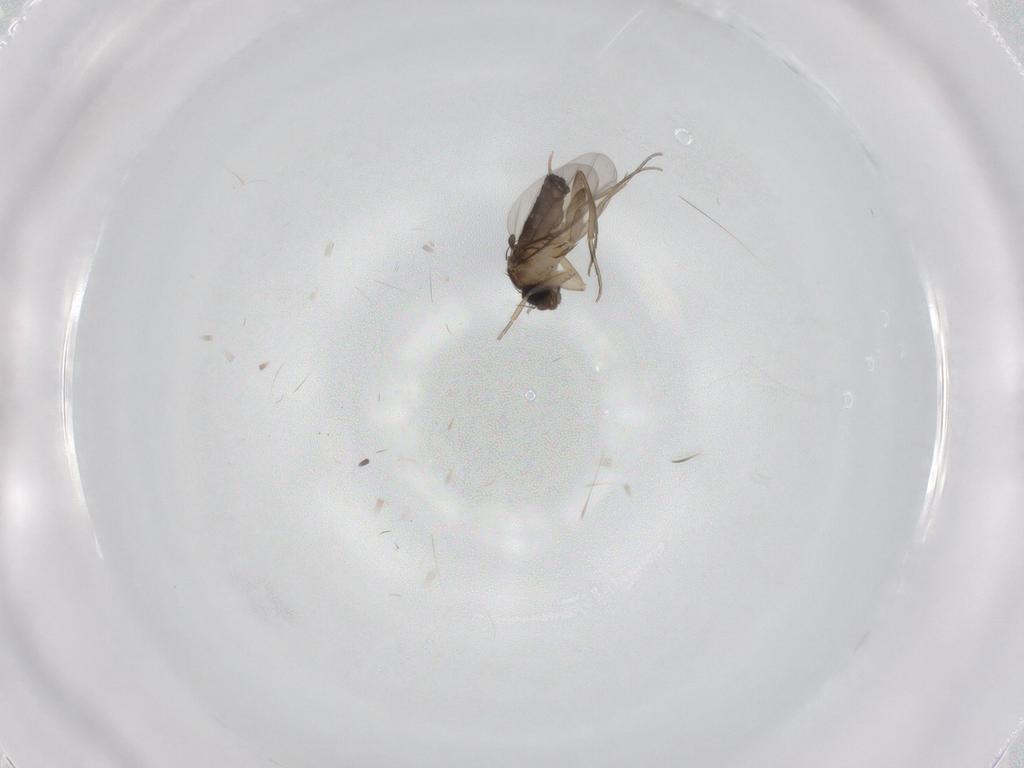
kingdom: Animalia
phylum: Arthropoda
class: Insecta
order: Diptera
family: Phoridae
